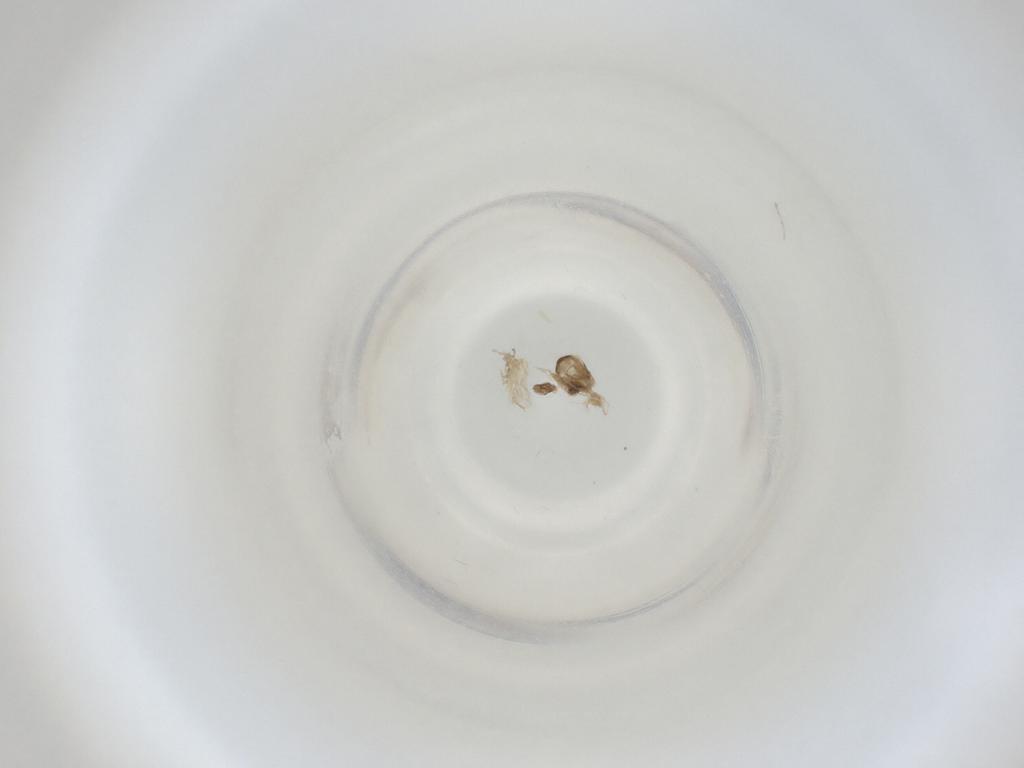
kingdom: Animalia
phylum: Arthropoda
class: Insecta
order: Diptera
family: Cecidomyiidae
